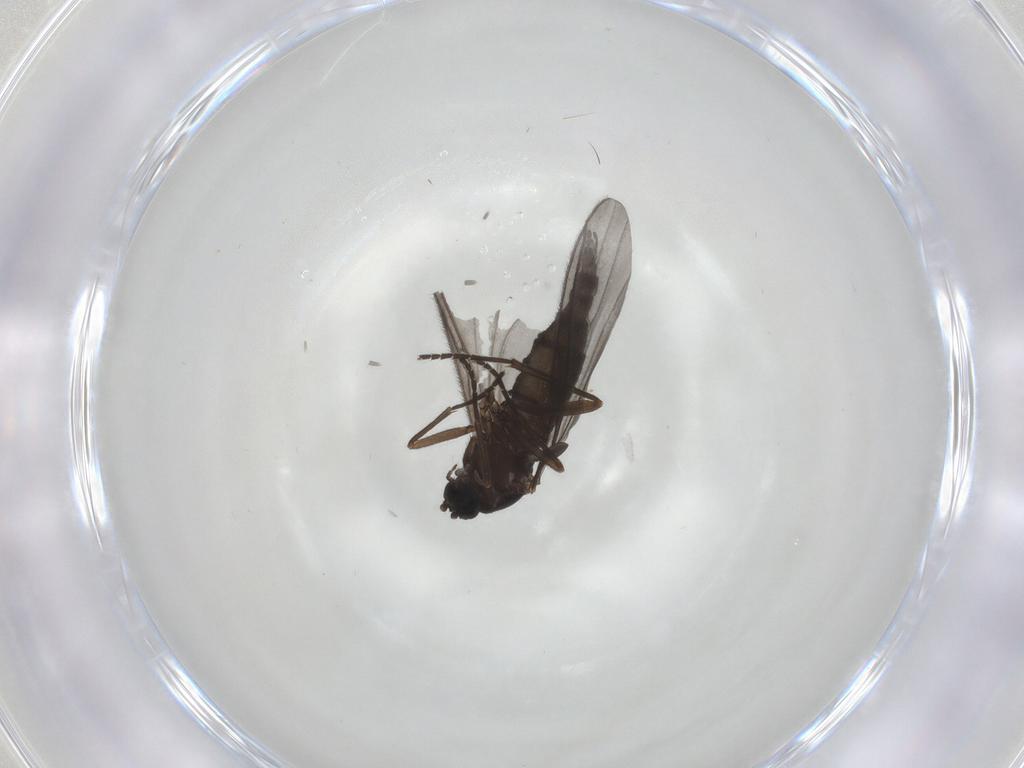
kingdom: Animalia
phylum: Arthropoda
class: Insecta
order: Diptera
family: Sciaridae
